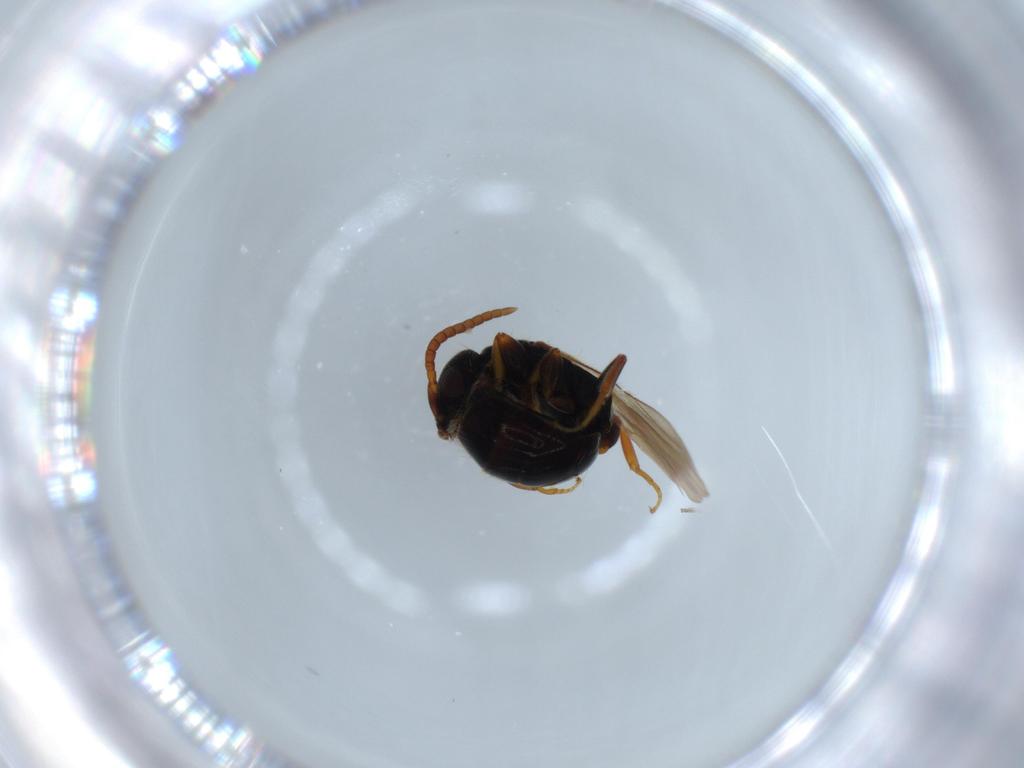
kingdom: Animalia
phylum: Arthropoda
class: Insecta
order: Hymenoptera
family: Bethylidae
